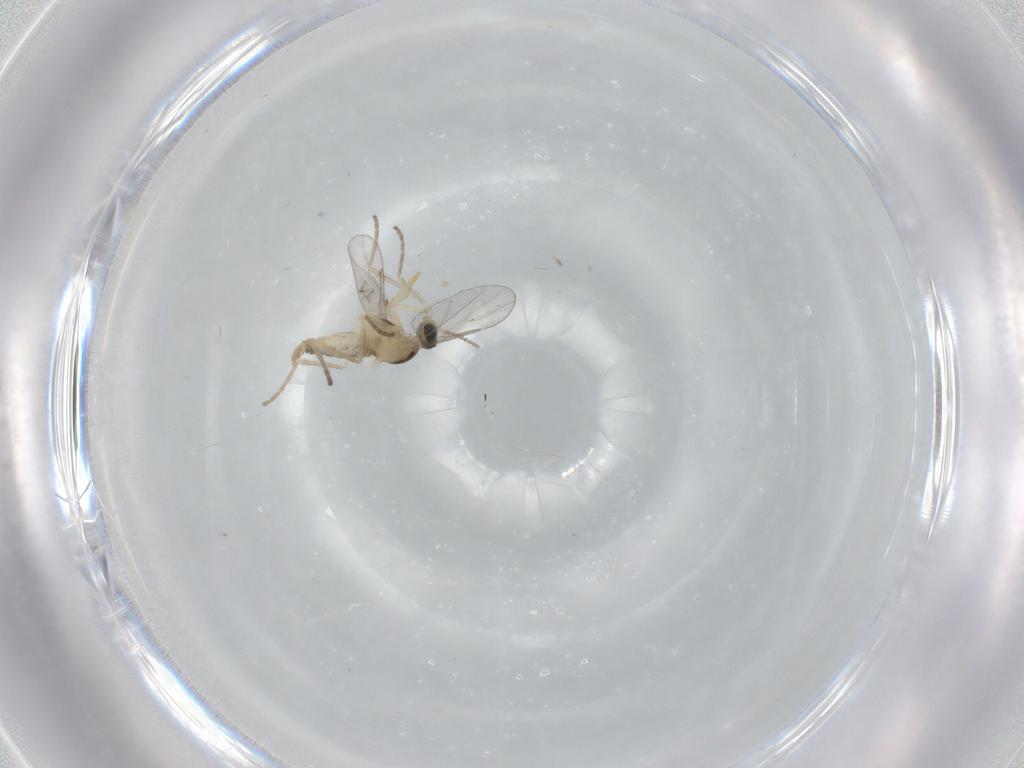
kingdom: Animalia
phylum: Arthropoda
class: Insecta
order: Diptera
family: Cecidomyiidae
